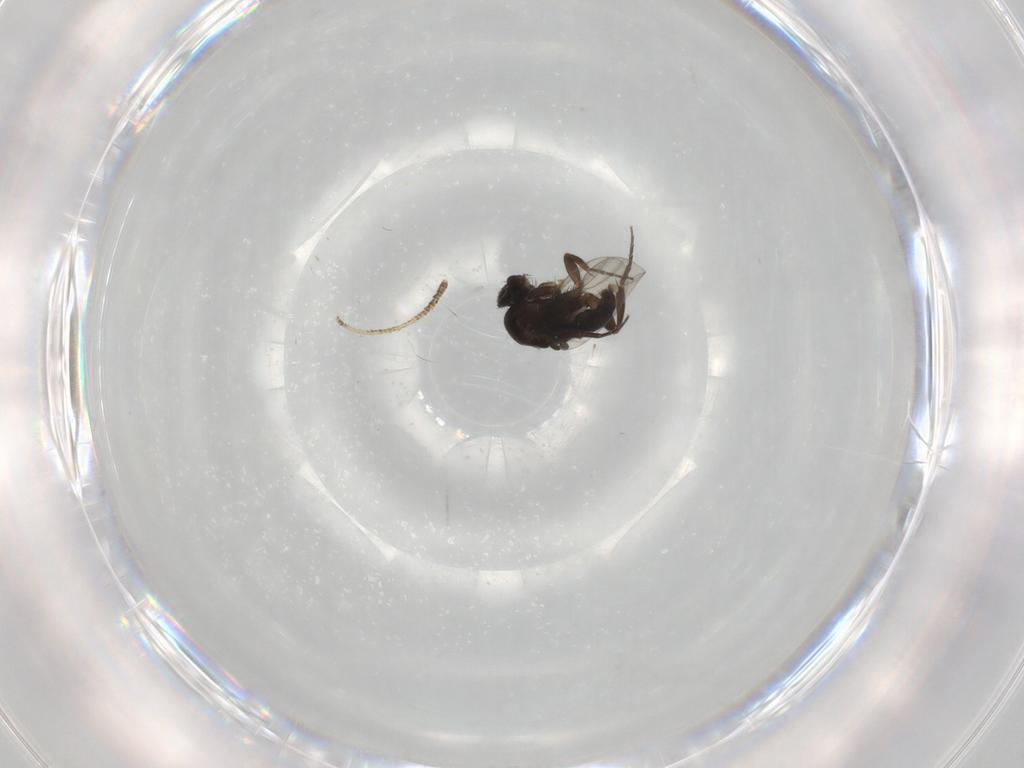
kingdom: Animalia
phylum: Arthropoda
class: Insecta
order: Diptera
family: Phoridae
